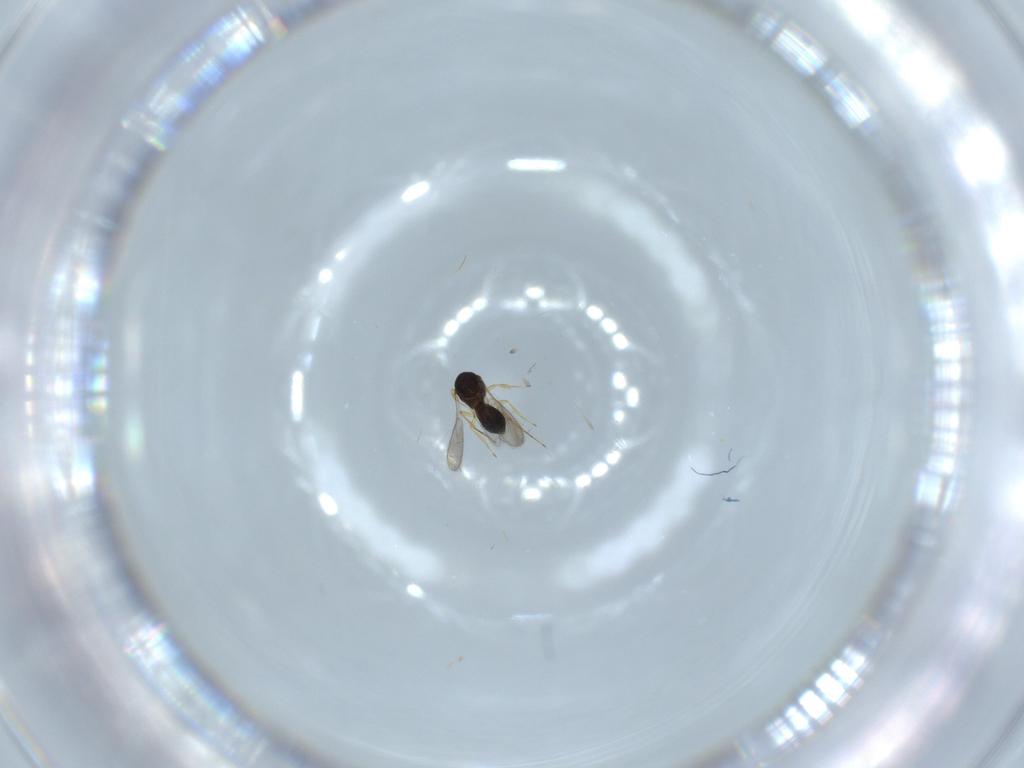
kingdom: Animalia
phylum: Arthropoda
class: Insecta
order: Hymenoptera
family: Scelionidae
